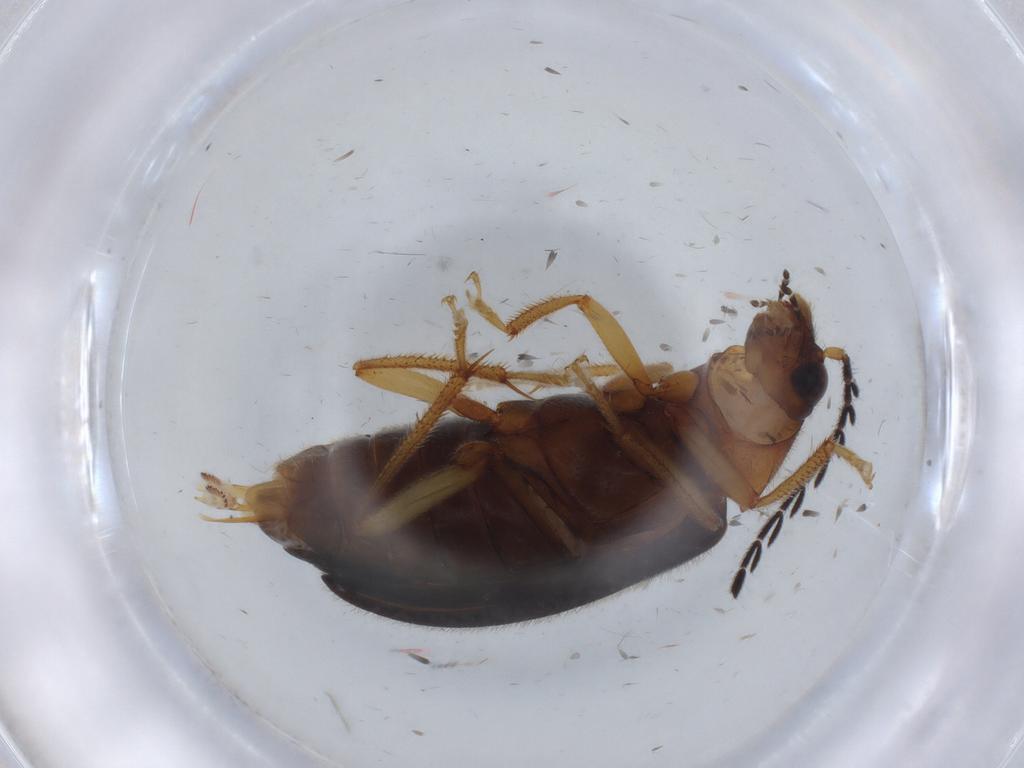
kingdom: Animalia
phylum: Arthropoda
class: Insecta
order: Coleoptera
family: Ptilodactylidae
